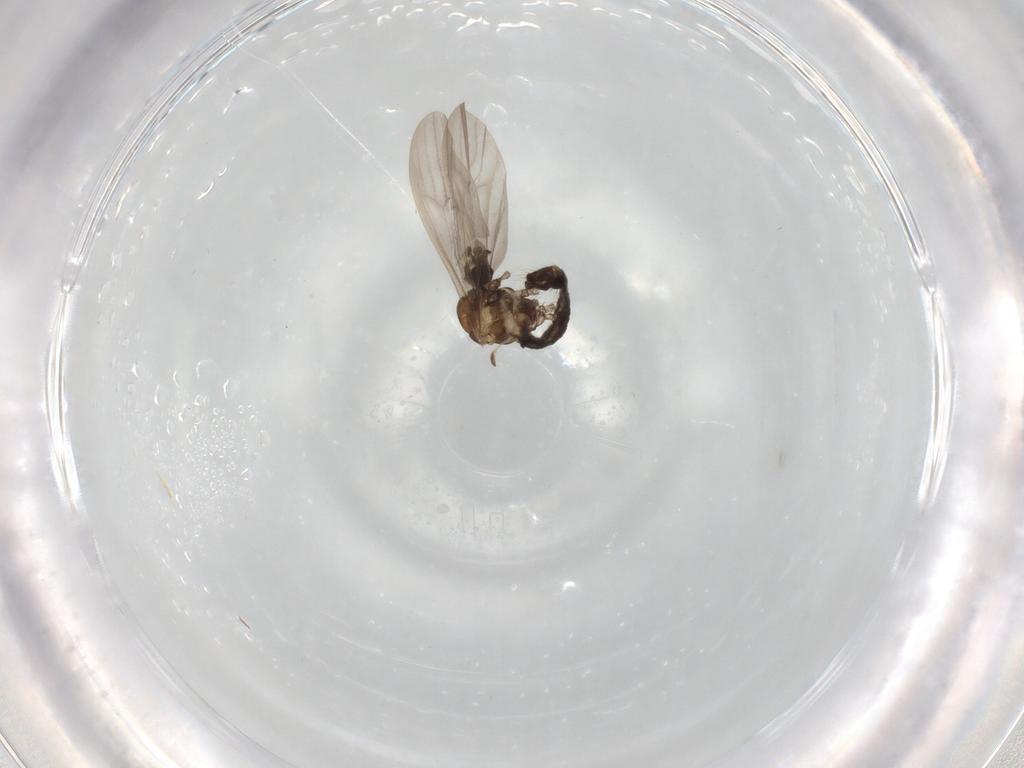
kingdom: Animalia
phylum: Arthropoda
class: Insecta
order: Diptera
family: Limoniidae
